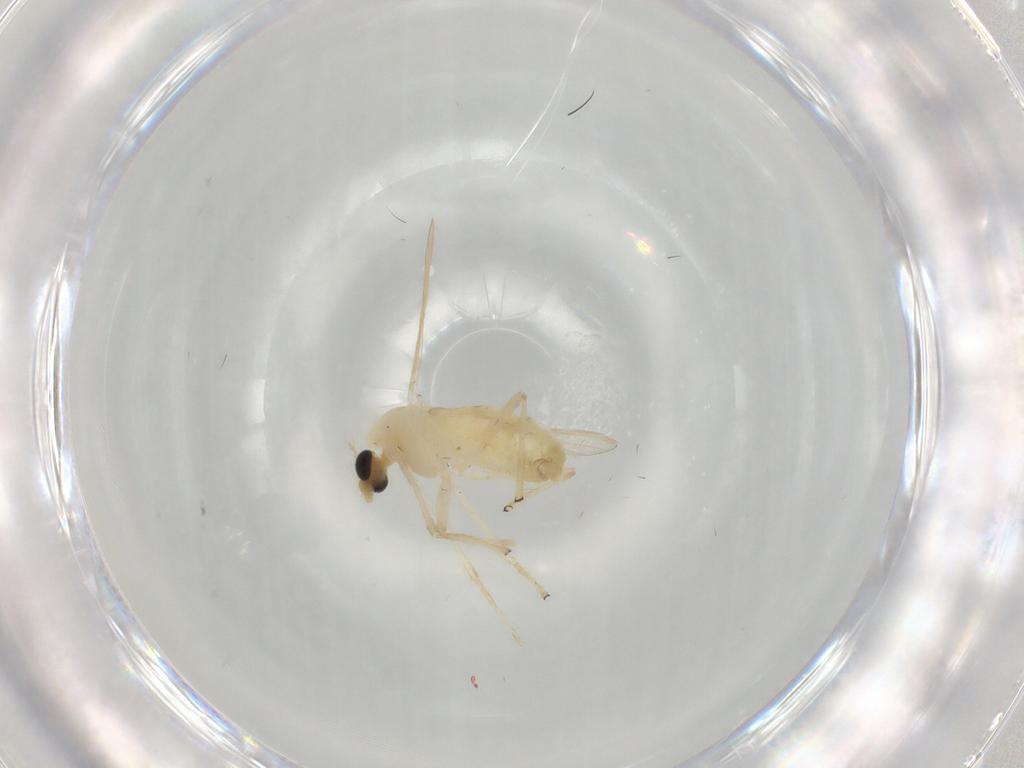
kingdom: Animalia
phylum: Arthropoda
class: Insecta
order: Diptera
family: Chironomidae
